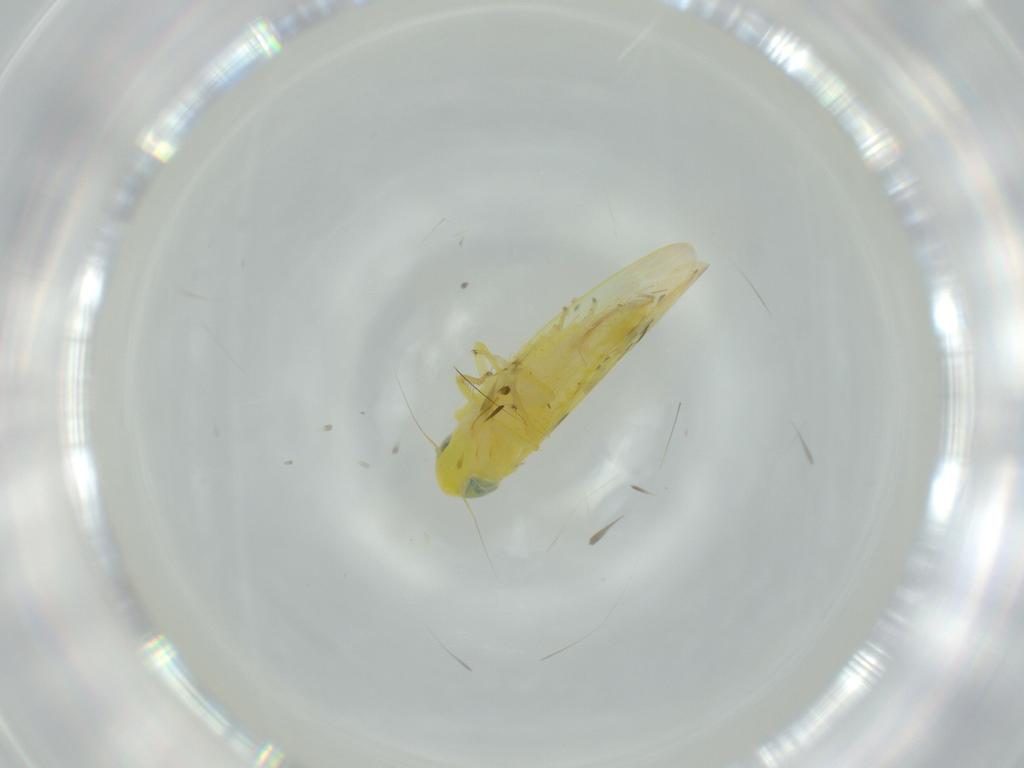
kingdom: Animalia
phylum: Arthropoda
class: Insecta
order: Hemiptera
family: Cicadellidae
